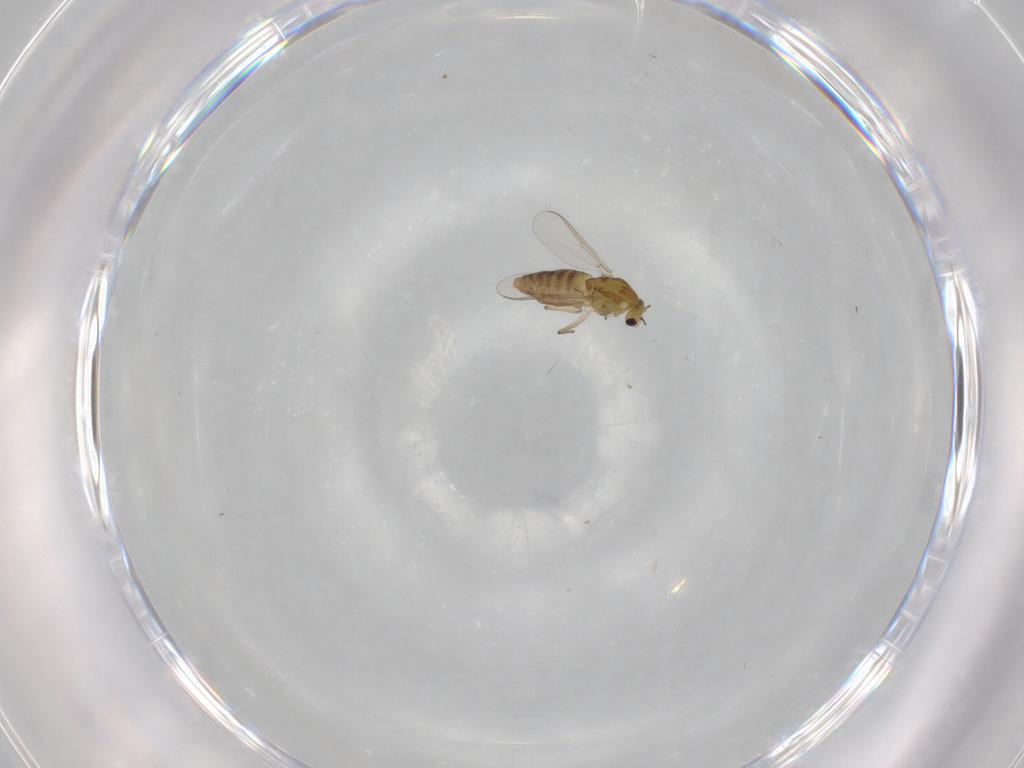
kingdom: Animalia
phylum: Arthropoda
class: Insecta
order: Diptera
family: Chironomidae
